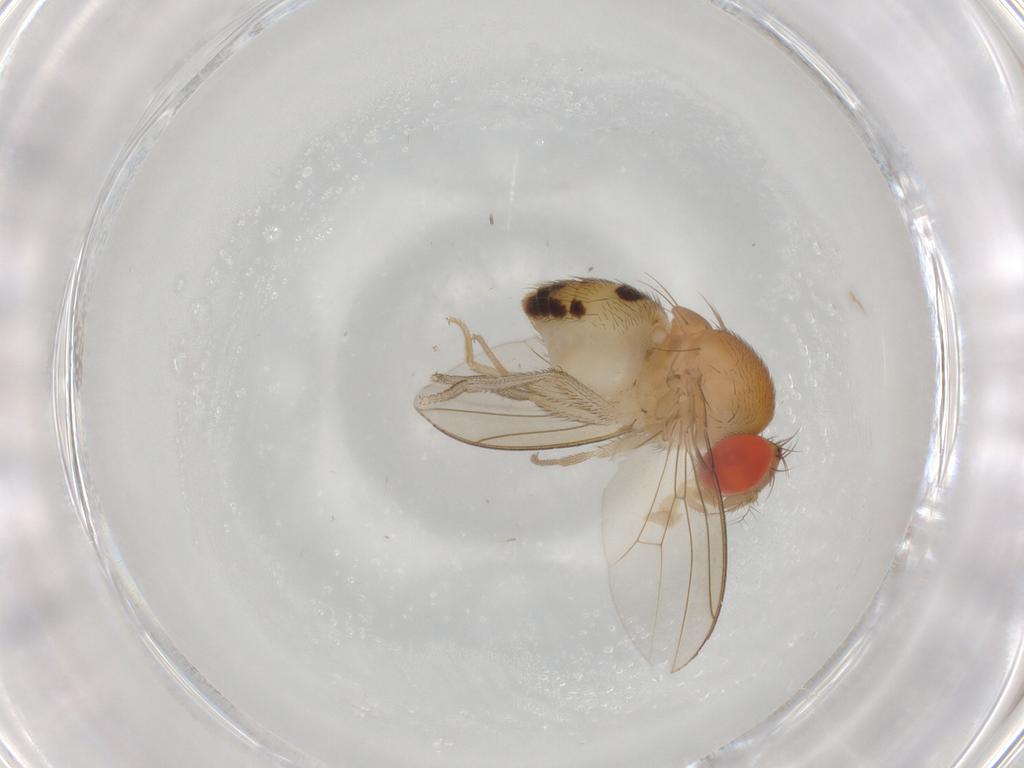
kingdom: Animalia
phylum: Arthropoda
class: Insecta
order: Diptera
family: Drosophilidae
